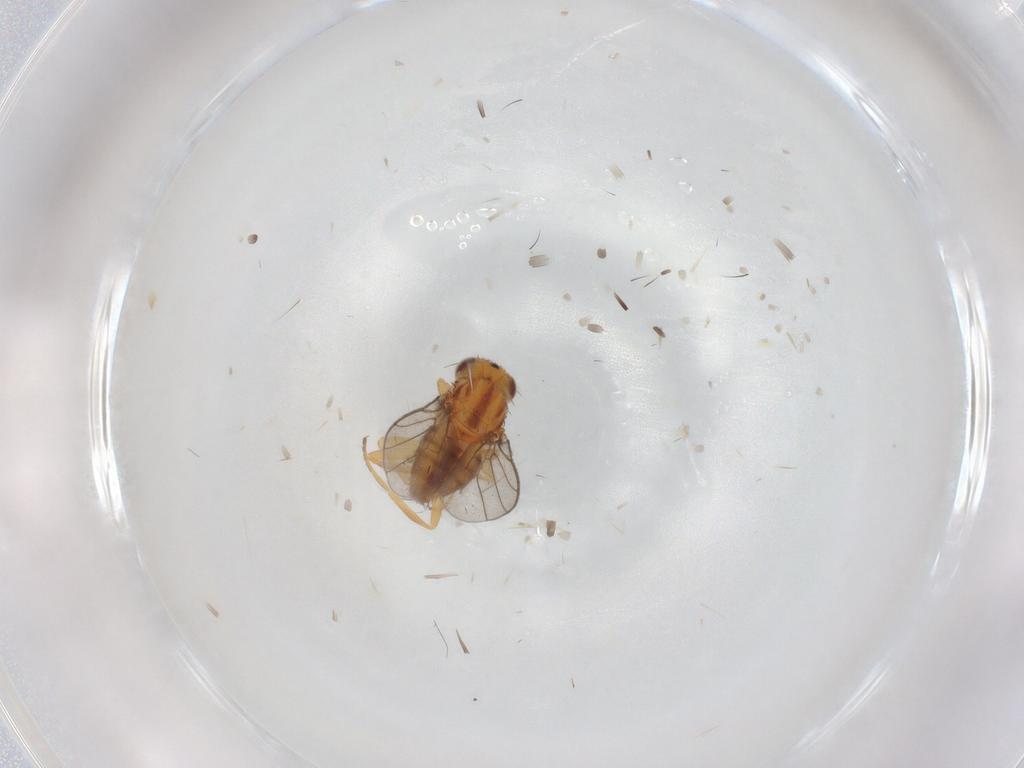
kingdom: Animalia
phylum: Arthropoda
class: Insecta
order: Diptera
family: Chloropidae
